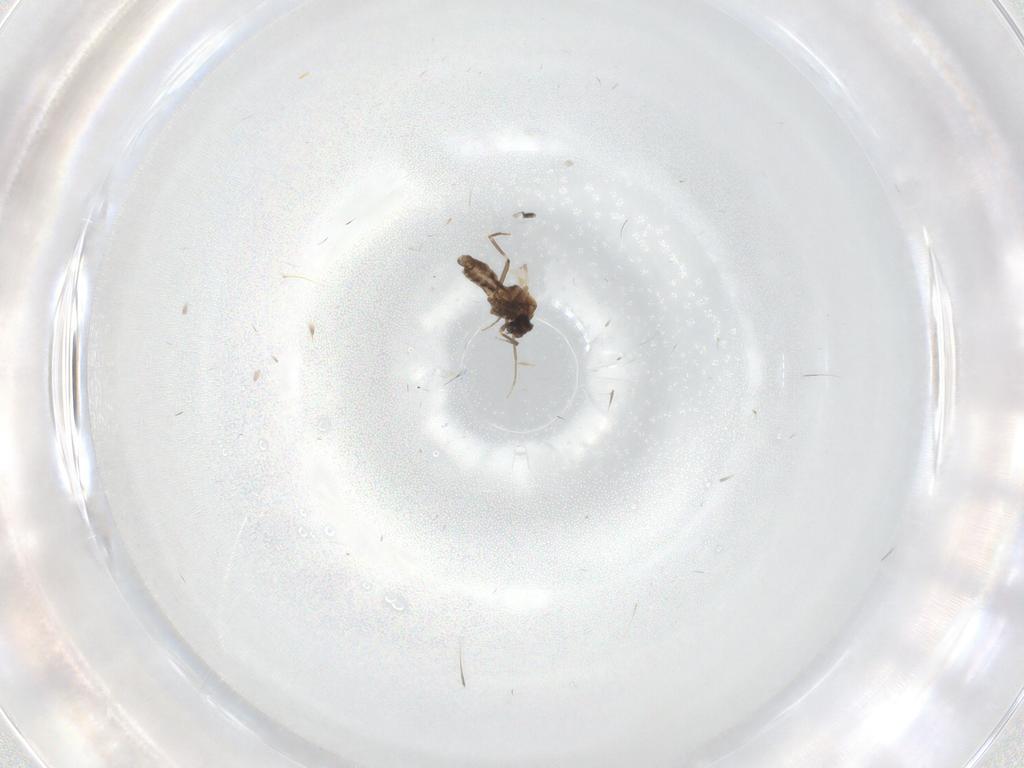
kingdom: Animalia
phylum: Arthropoda
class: Insecta
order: Diptera
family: Ceratopogonidae
